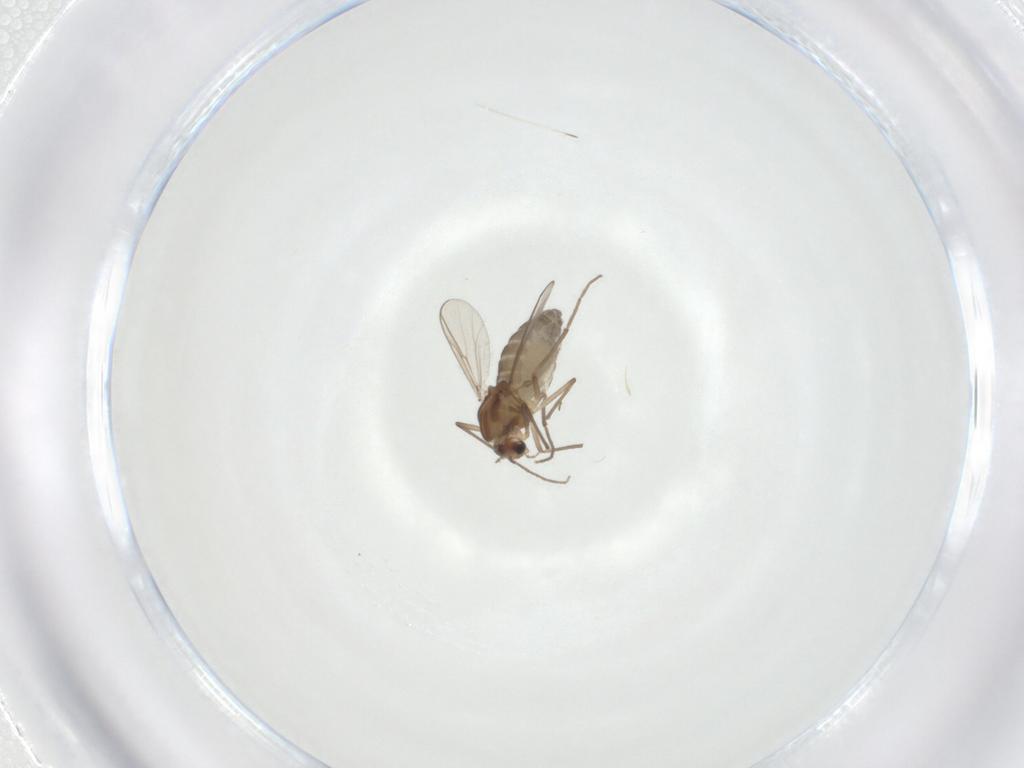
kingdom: Animalia
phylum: Arthropoda
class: Insecta
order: Diptera
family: Chironomidae
